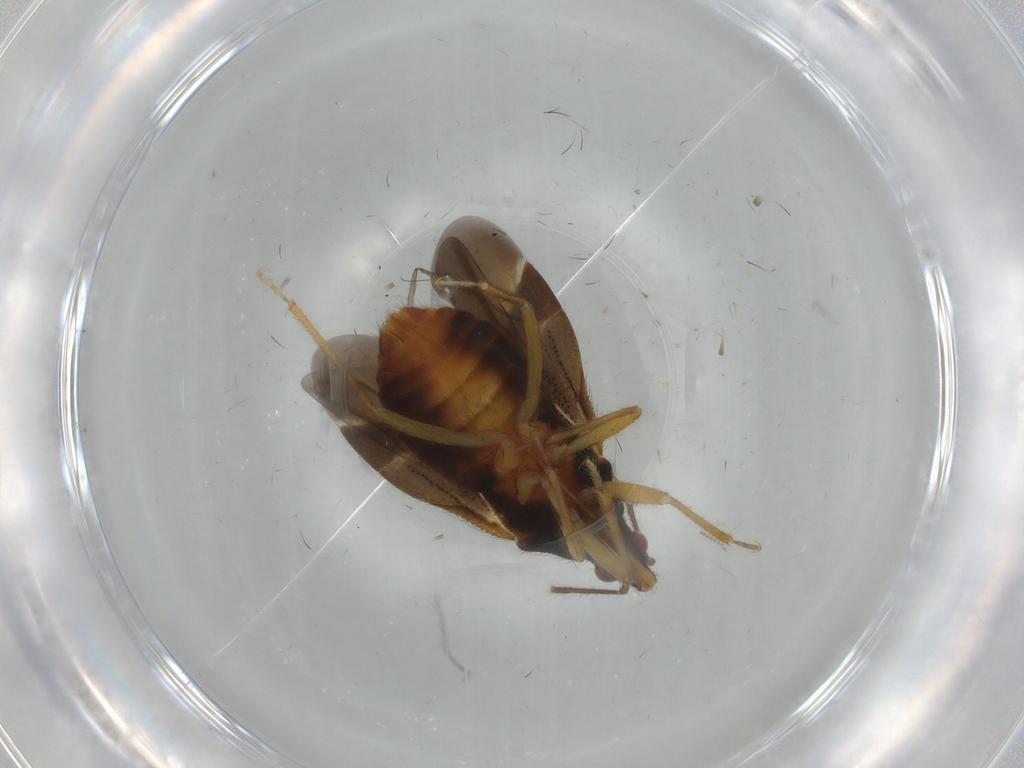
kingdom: Animalia
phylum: Arthropoda
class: Insecta
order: Hemiptera
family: Anthocoridae
